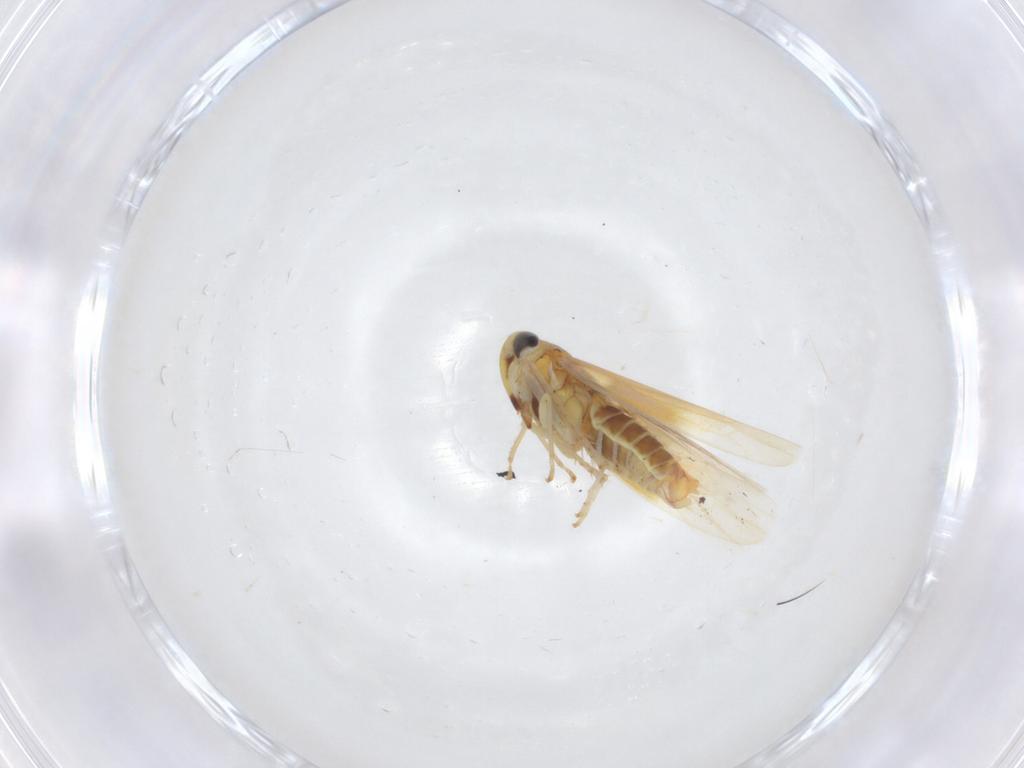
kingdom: Animalia
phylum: Arthropoda
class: Insecta
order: Hemiptera
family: Cicadellidae
